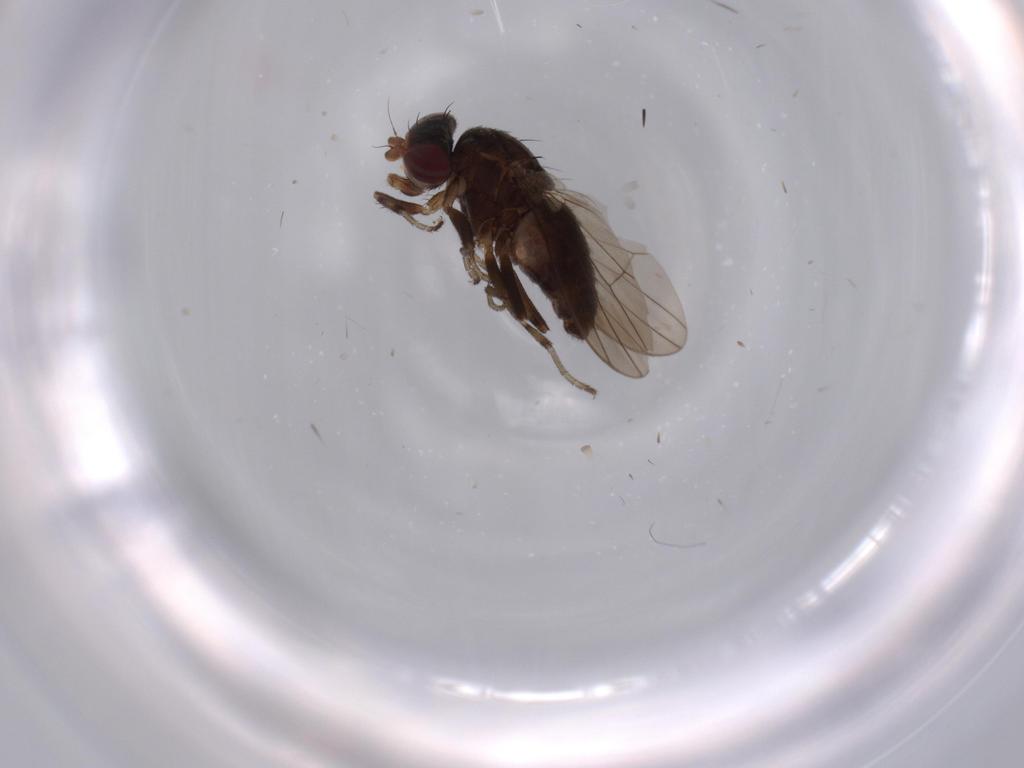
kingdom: Animalia
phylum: Arthropoda
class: Insecta
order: Diptera
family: Heleomyzidae
